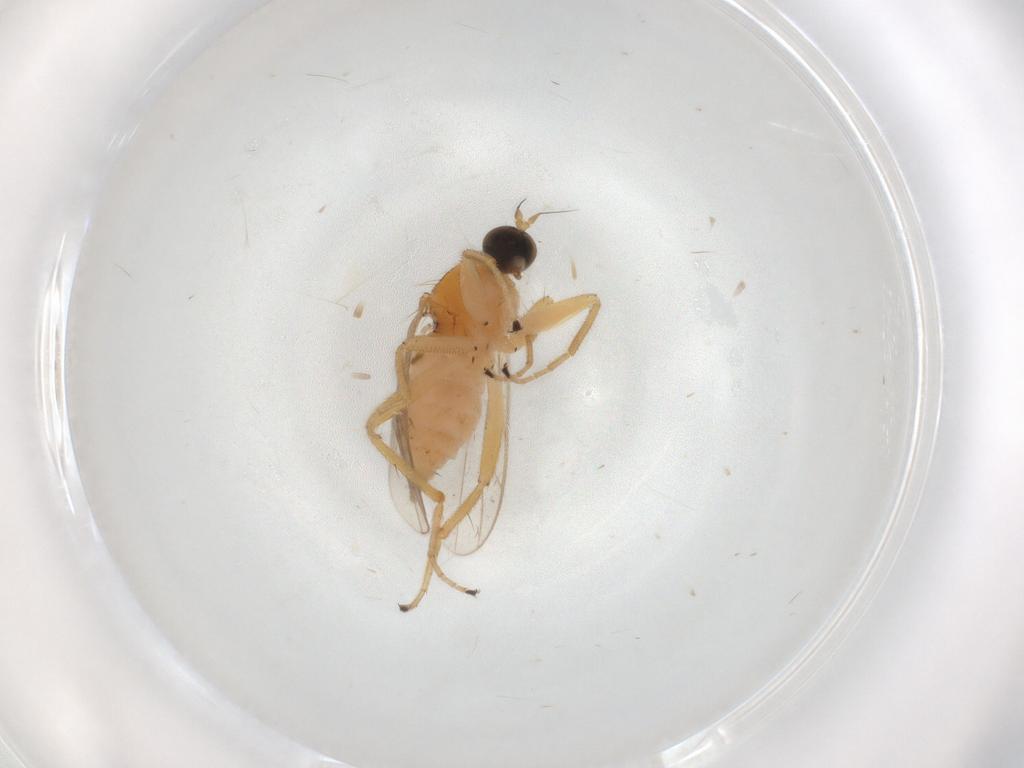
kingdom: Animalia
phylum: Arthropoda
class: Insecta
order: Diptera
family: Hybotidae
